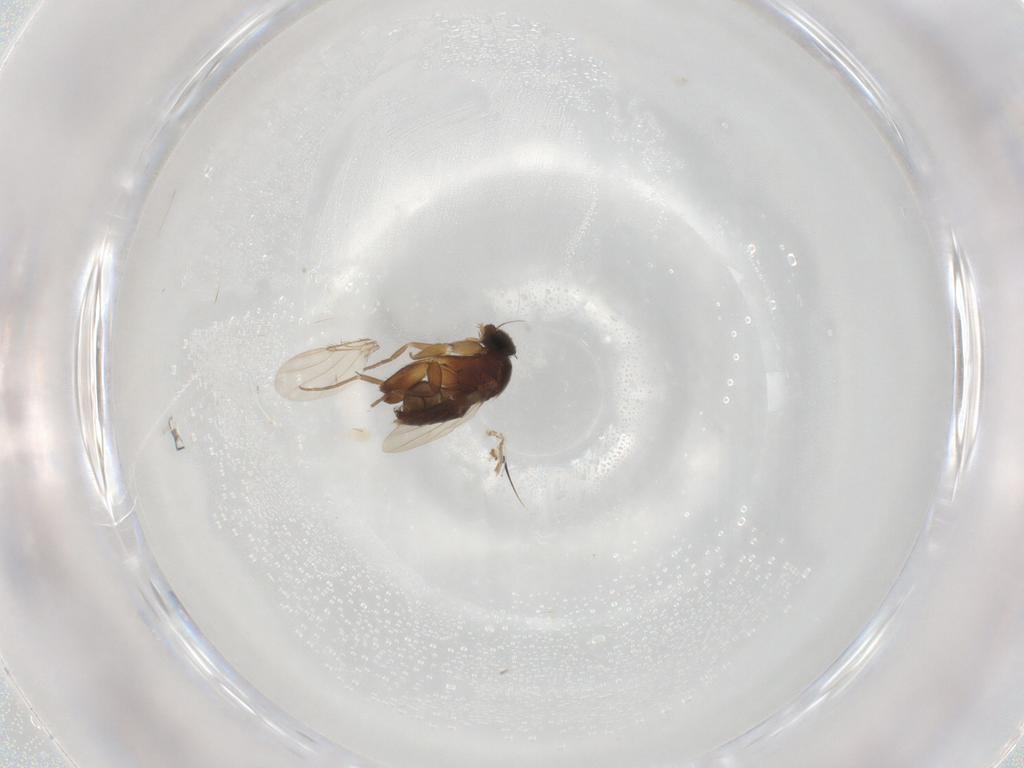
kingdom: Animalia
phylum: Arthropoda
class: Insecta
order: Diptera
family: Phoridae
